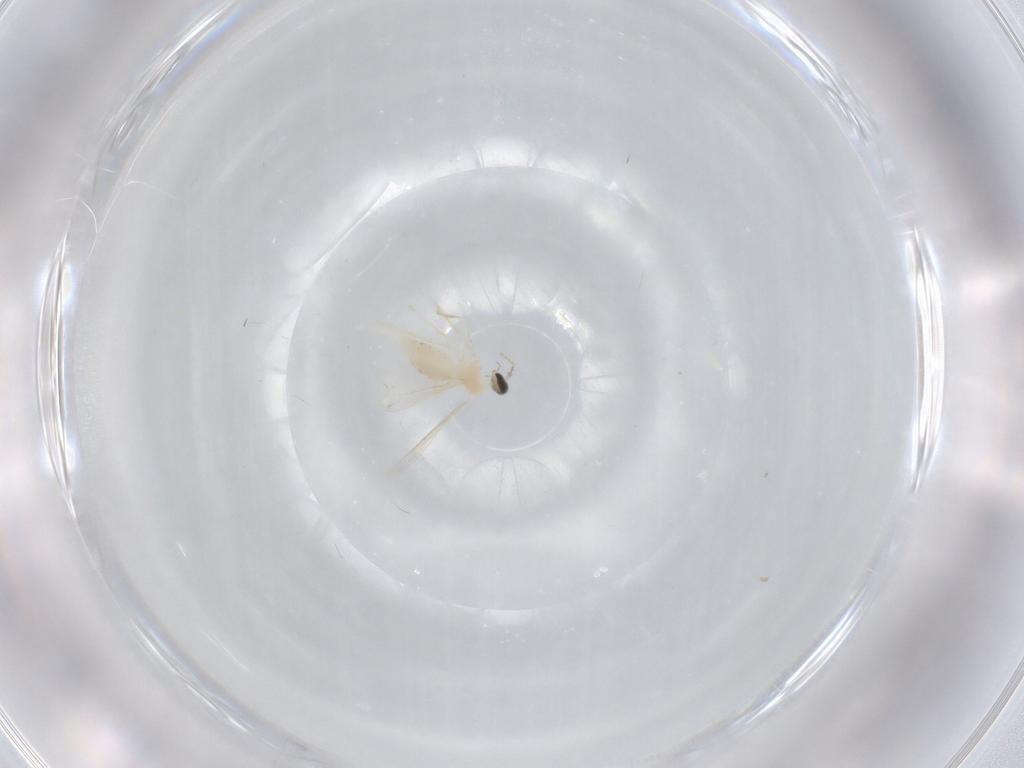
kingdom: Animalia
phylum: Arthropoda
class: Insecta
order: Diptera
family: Cecidomyiidae
